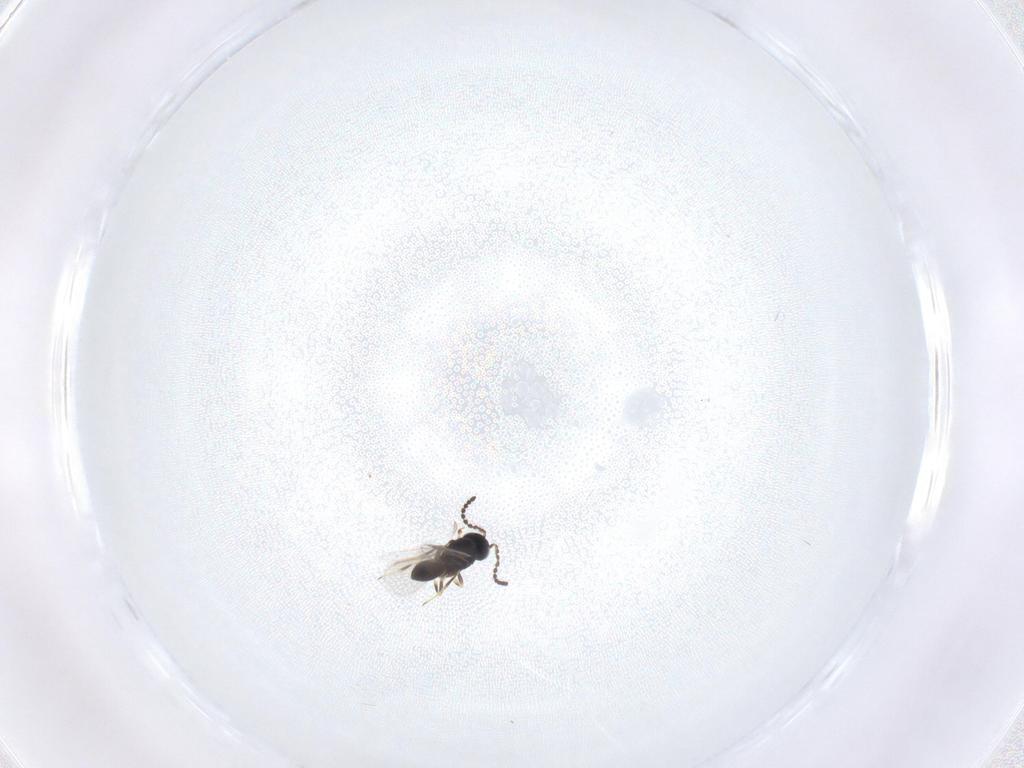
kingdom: Animalia
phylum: Arthropoda
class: Insecta
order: Hymenoptera
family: Scelionidae
